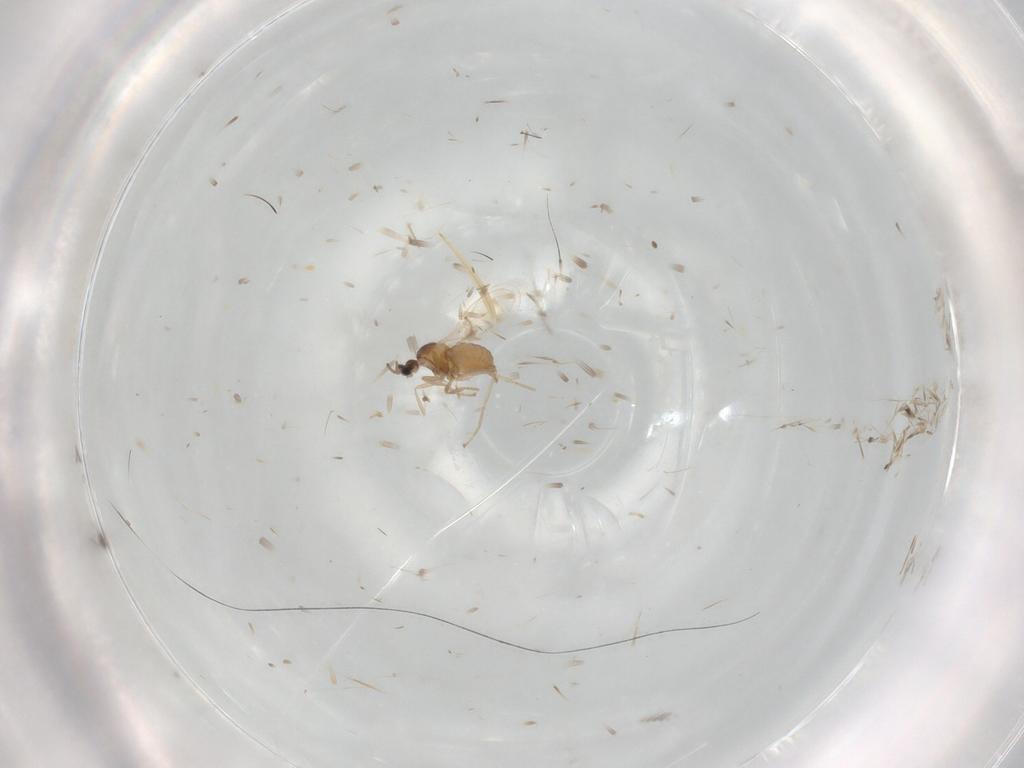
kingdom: Animalia
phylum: Arthropoda
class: Insecta
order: Diptera
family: Cecidomyiidae
